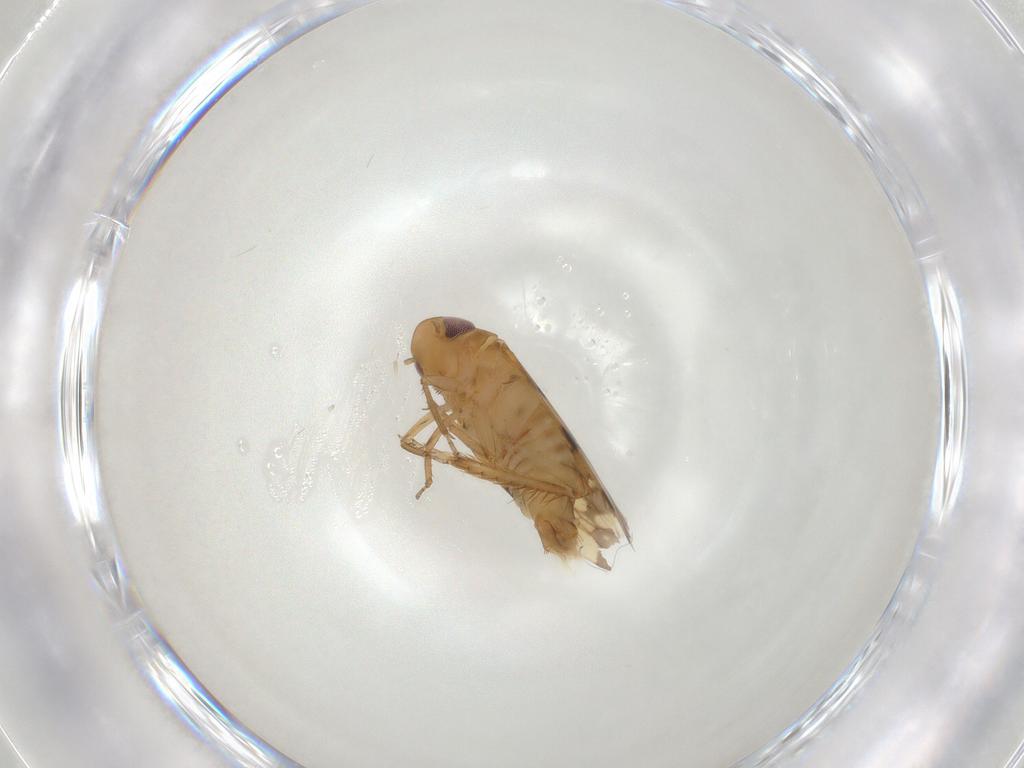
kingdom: Animalia
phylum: Arthropoda
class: Insecta
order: Hemiptera
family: Cicadellidae
